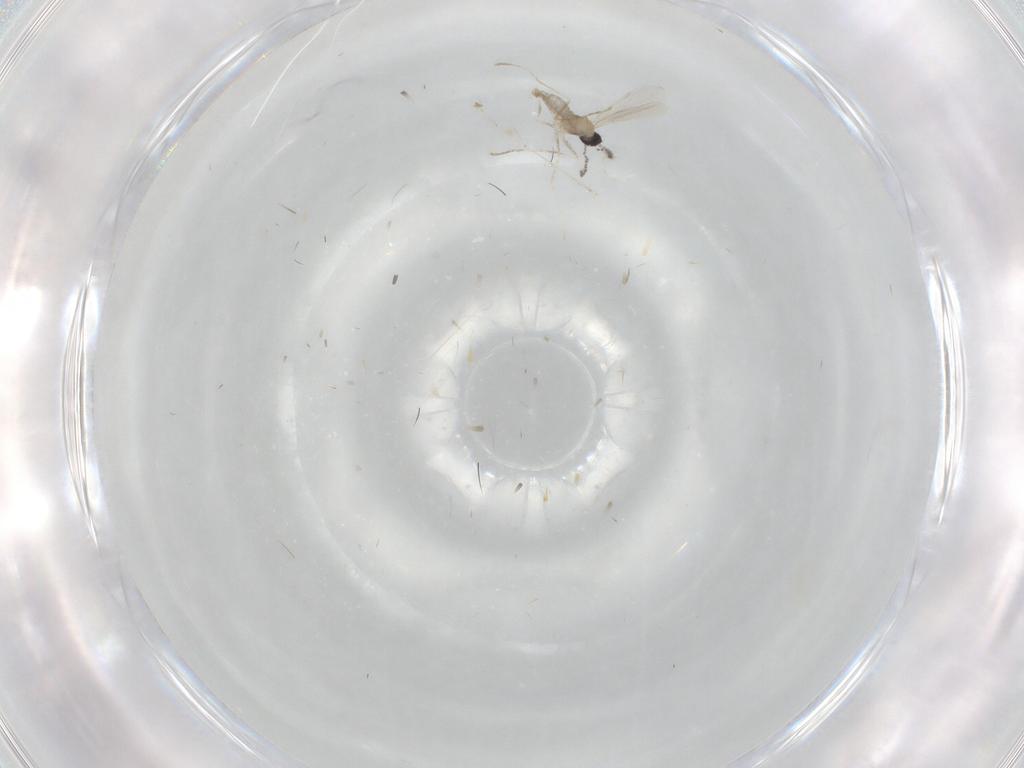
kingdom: Animalia
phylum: Arthropoda
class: Insecta
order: Diptera
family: Cecidomyiidae
